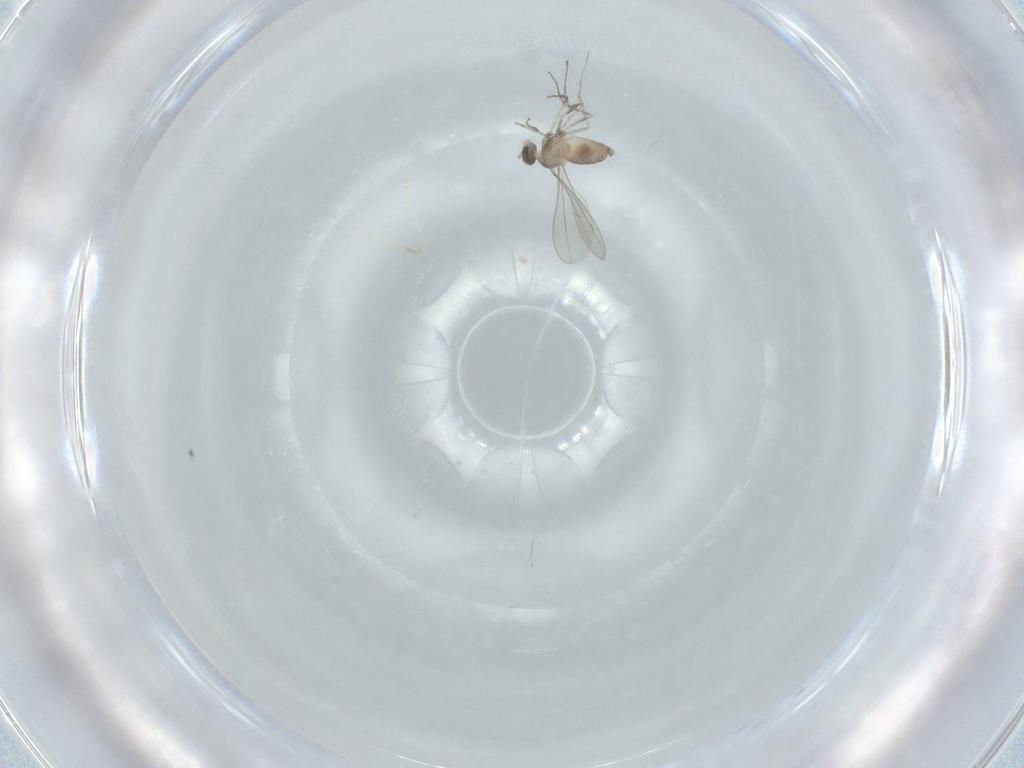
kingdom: Animalia
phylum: Arthropoda
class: Insecta
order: Diptera
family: Cecidomyiidae
